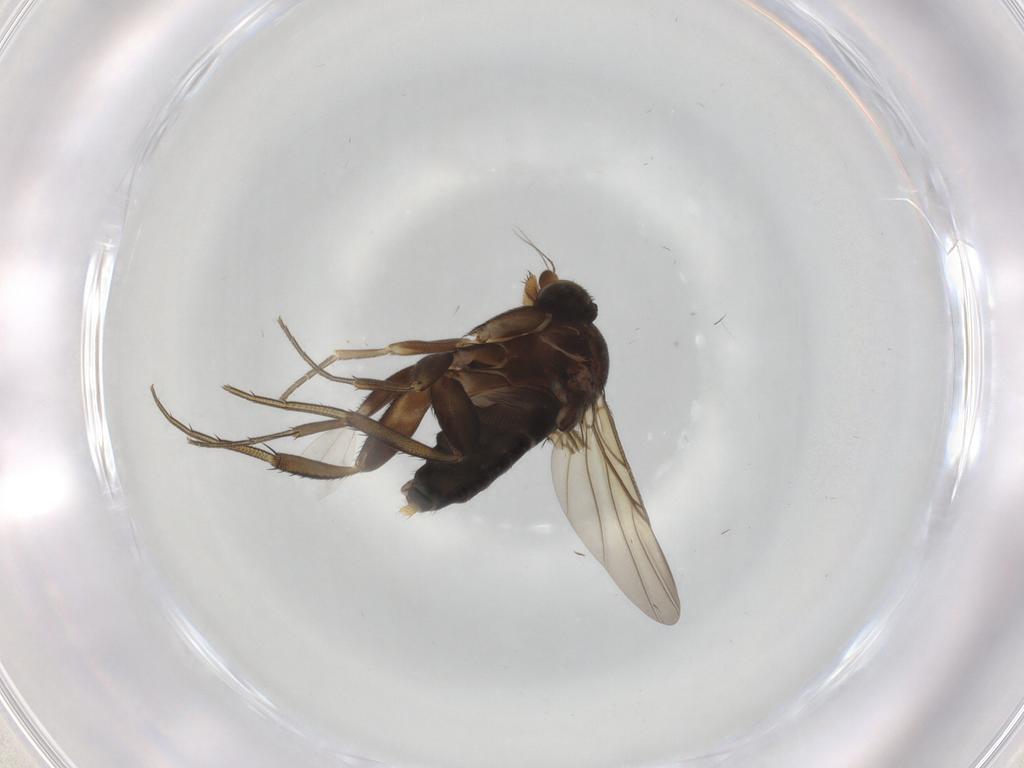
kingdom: Animalia
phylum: Arthropoda
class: Insecta
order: Diptera
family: Phoridae
